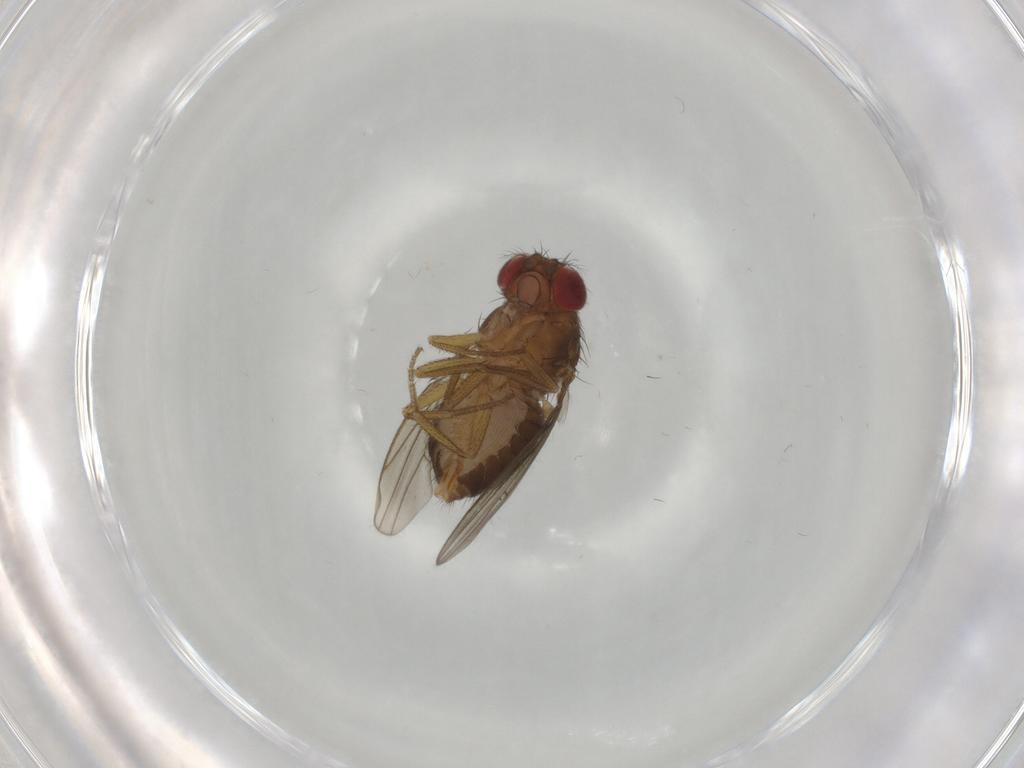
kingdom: Animalia
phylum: Arthropoda
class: Insecta
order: Diptera
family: Drosophilidae
